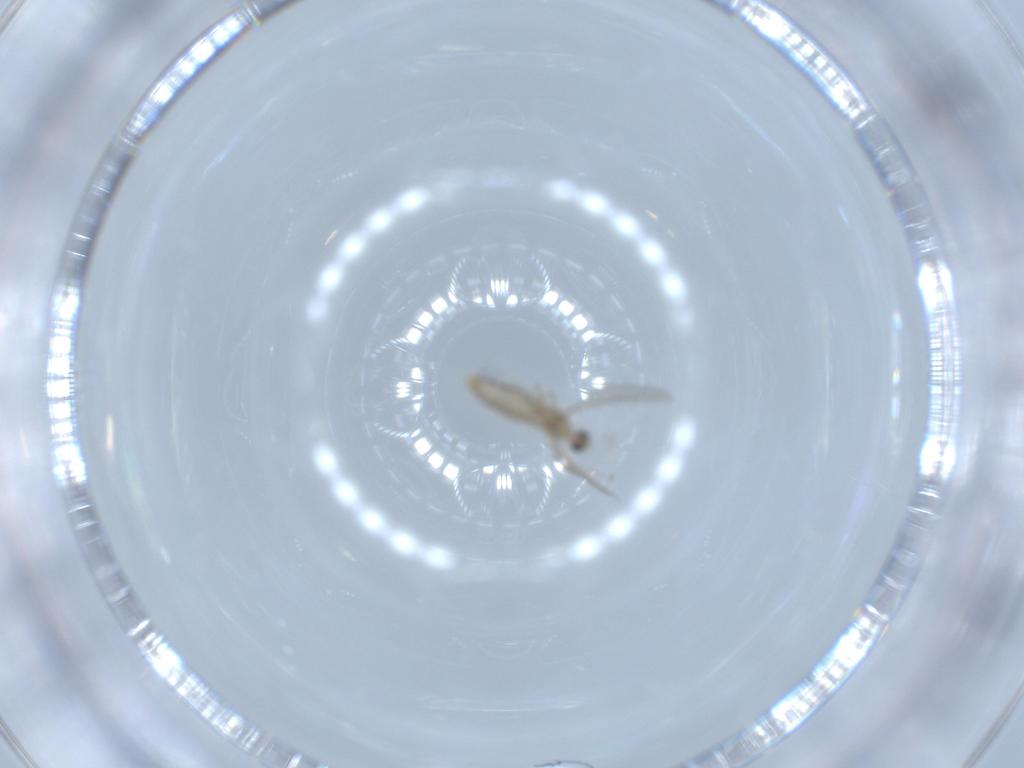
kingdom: Animalia
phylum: Arthropoda
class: Insecta
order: Diptera
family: Cecidomyiidae
